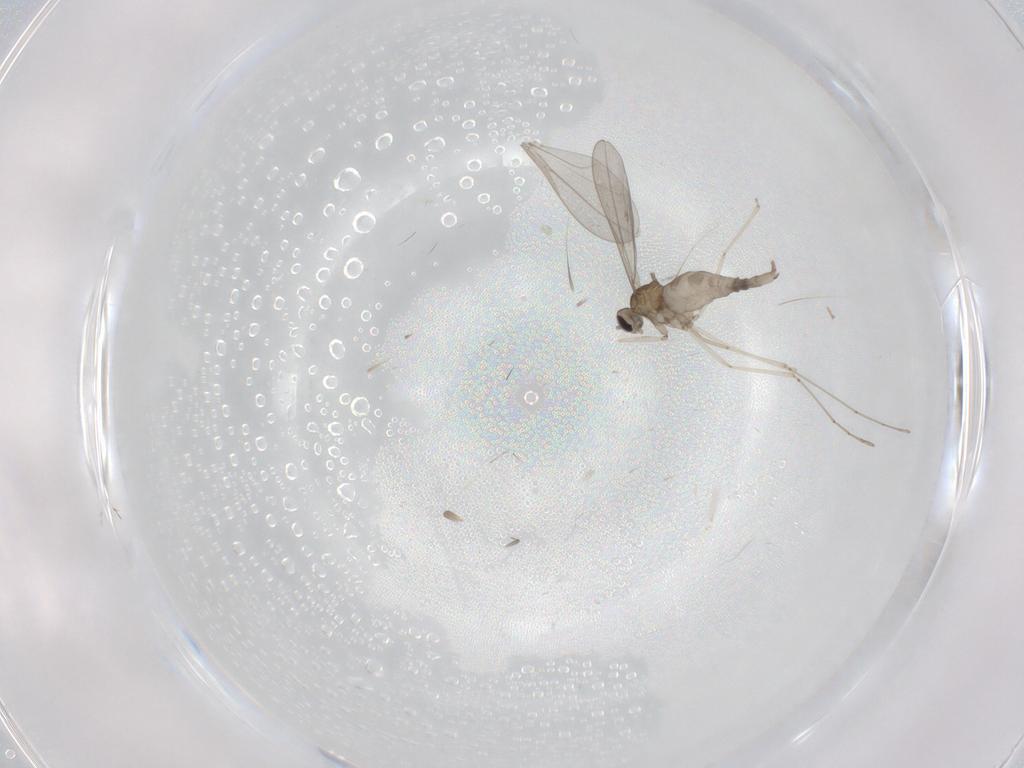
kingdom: Animalia
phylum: Arthropoda
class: Insecta
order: Diptera
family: Cecidomyiidae
